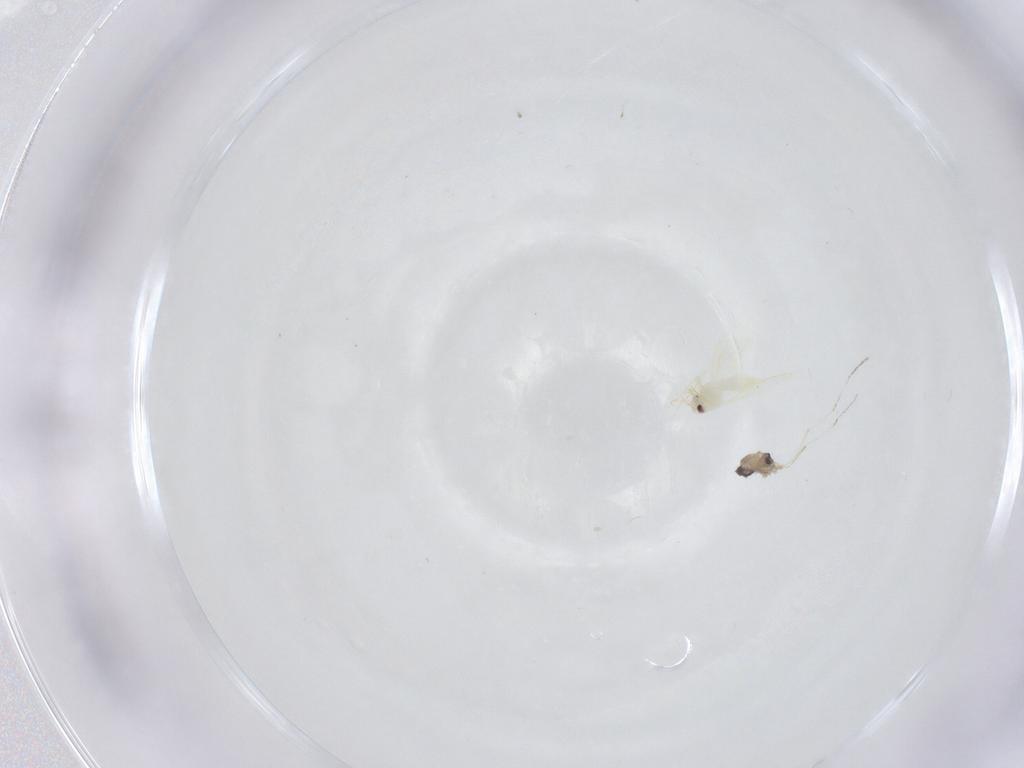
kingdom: Animalia
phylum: Arthropoda
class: Insecta
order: Diptera
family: Cecidomyiidae
